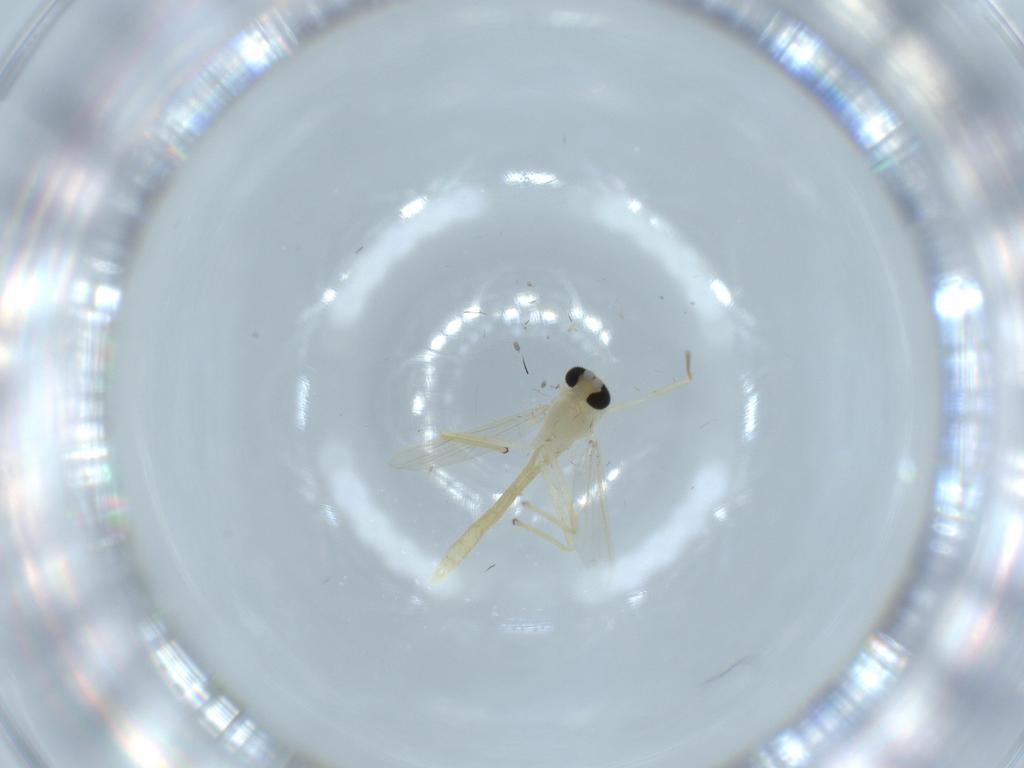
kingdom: Animalia
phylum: Arthropoda
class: Insecta
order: Diptera
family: Chironomidae
